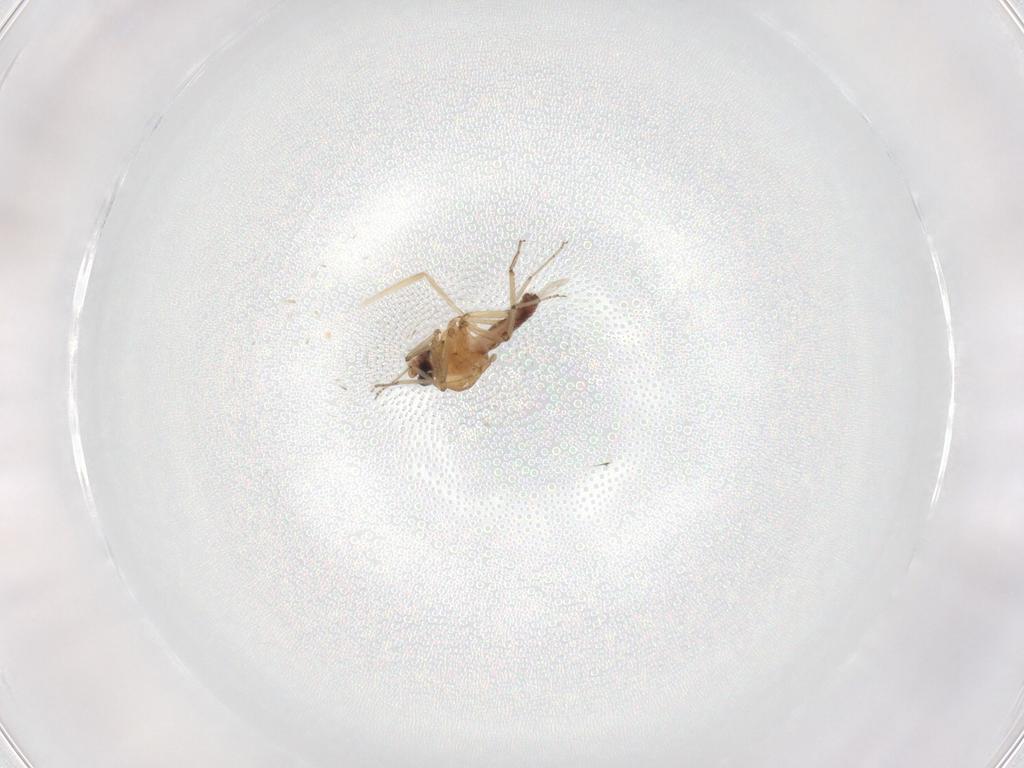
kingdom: Animalia
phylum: Arthropoda
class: Insecta
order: Diptera
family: Ceratopogonidae
